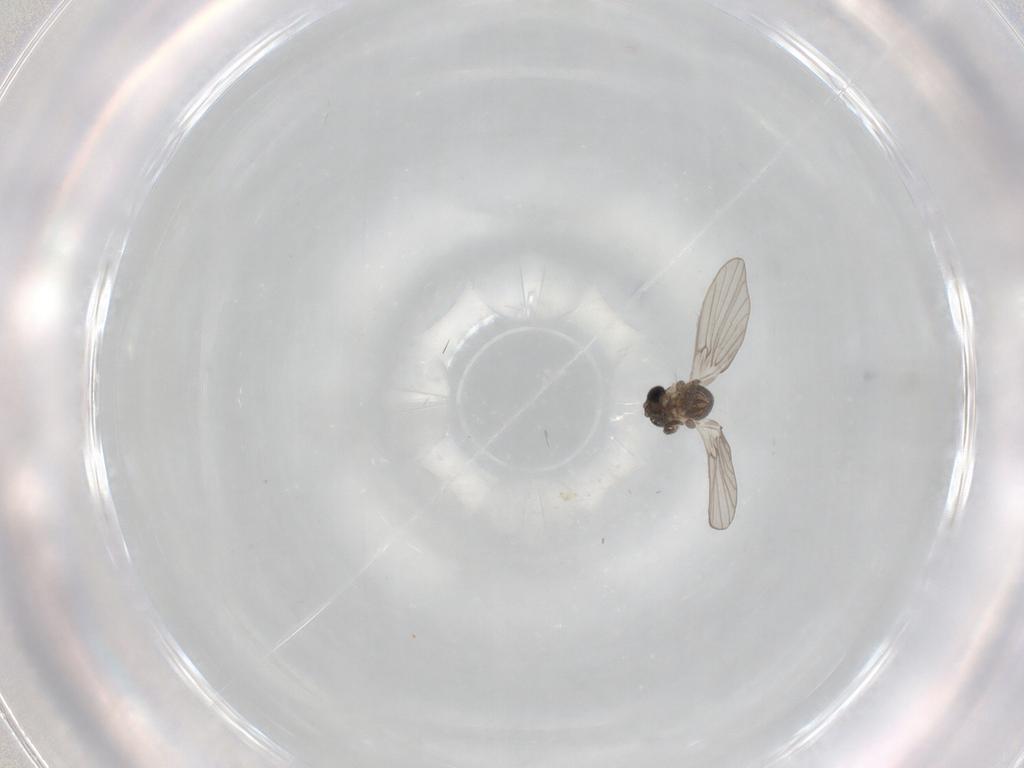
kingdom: Animalia
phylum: Arthropoda
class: Insecta
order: Diptera
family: Psychodidae
